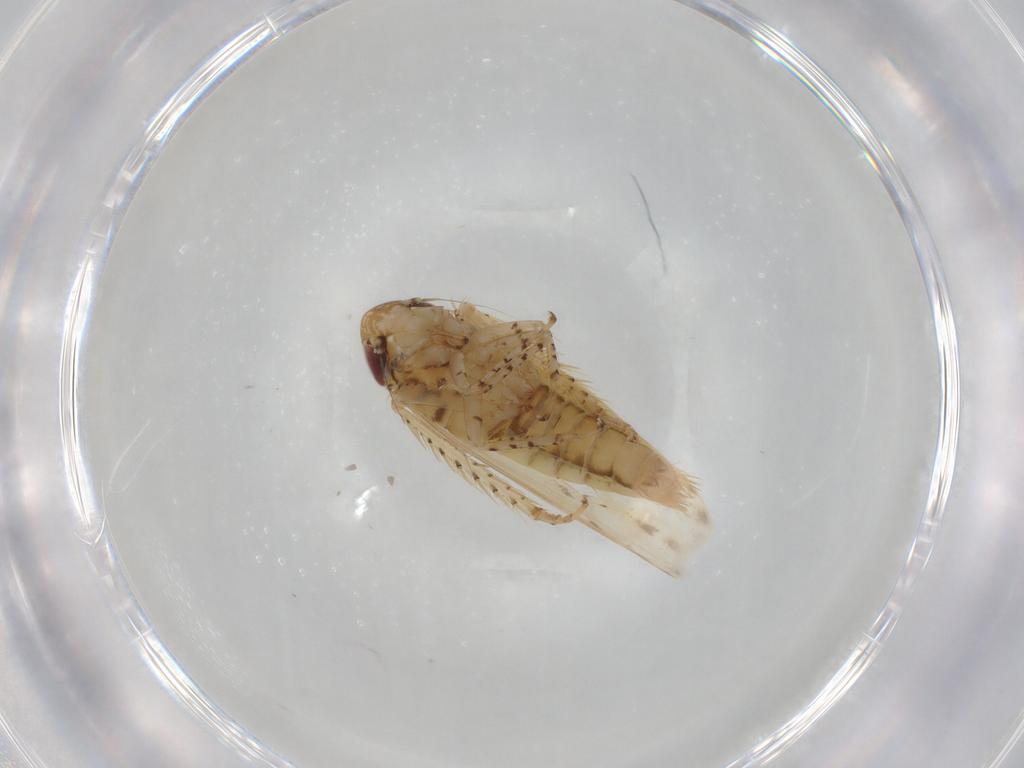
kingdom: Animalia
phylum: Arthropoda
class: Insecta
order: Hemiptera
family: Cicadellidae
